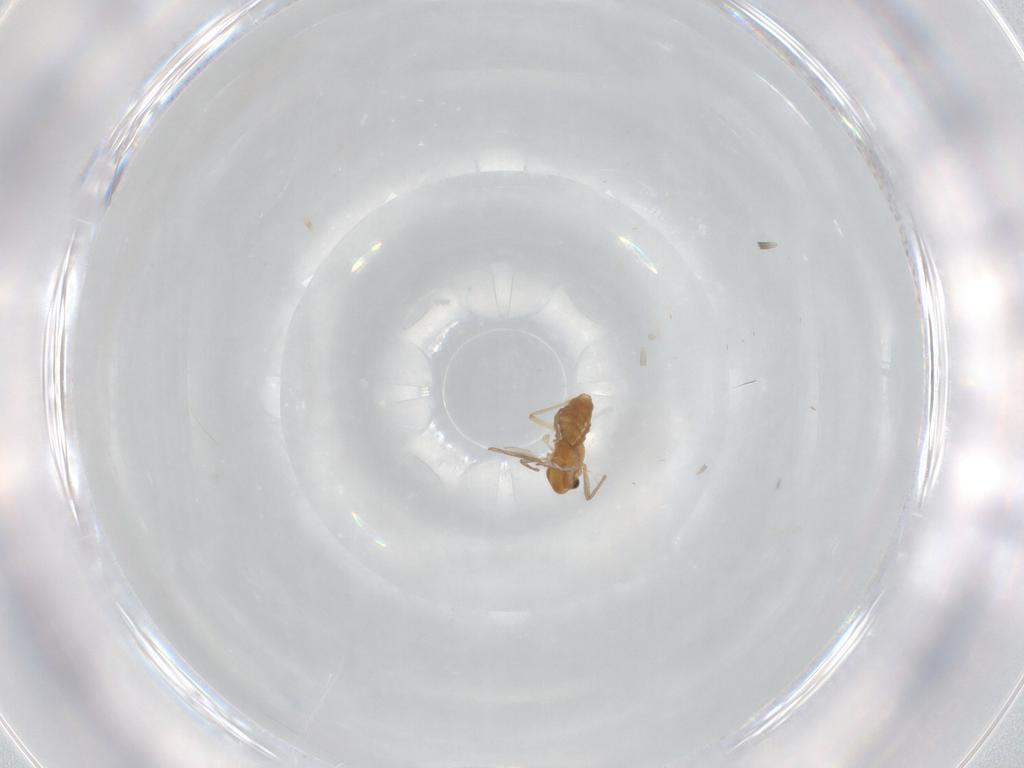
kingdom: Animalia
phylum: Arthropoda
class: Insecta
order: Diptera
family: Chironomidae
